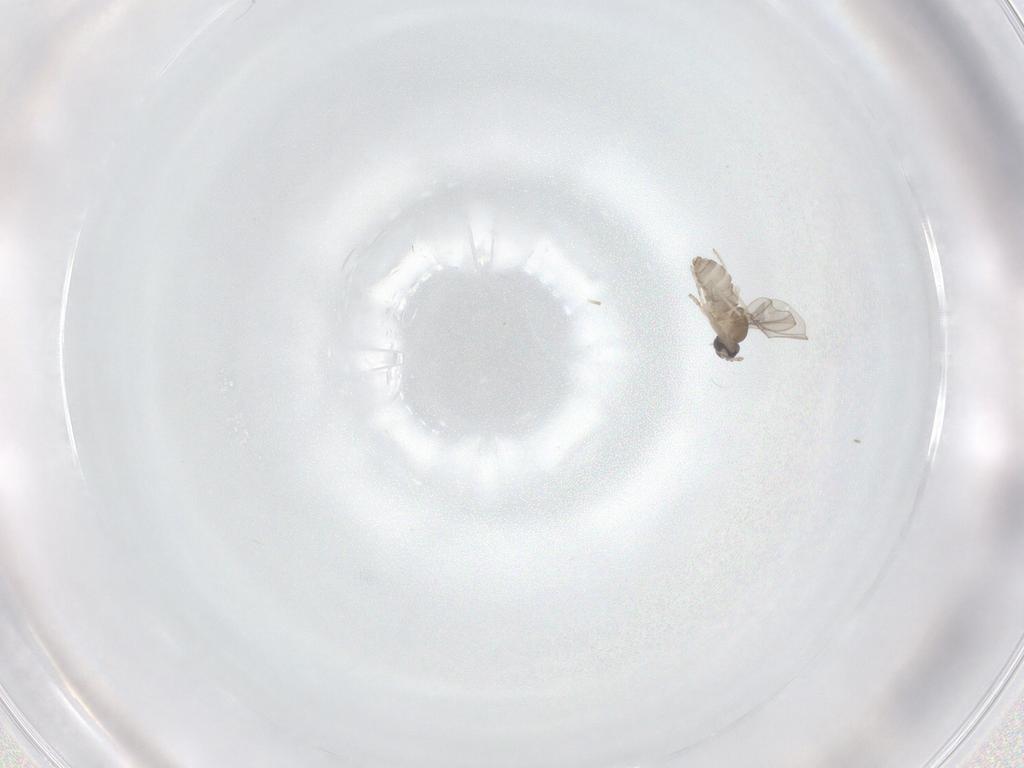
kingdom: Animalia
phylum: Arthropoda
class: Insecta
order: Diptera
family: Cecidomyiidae
